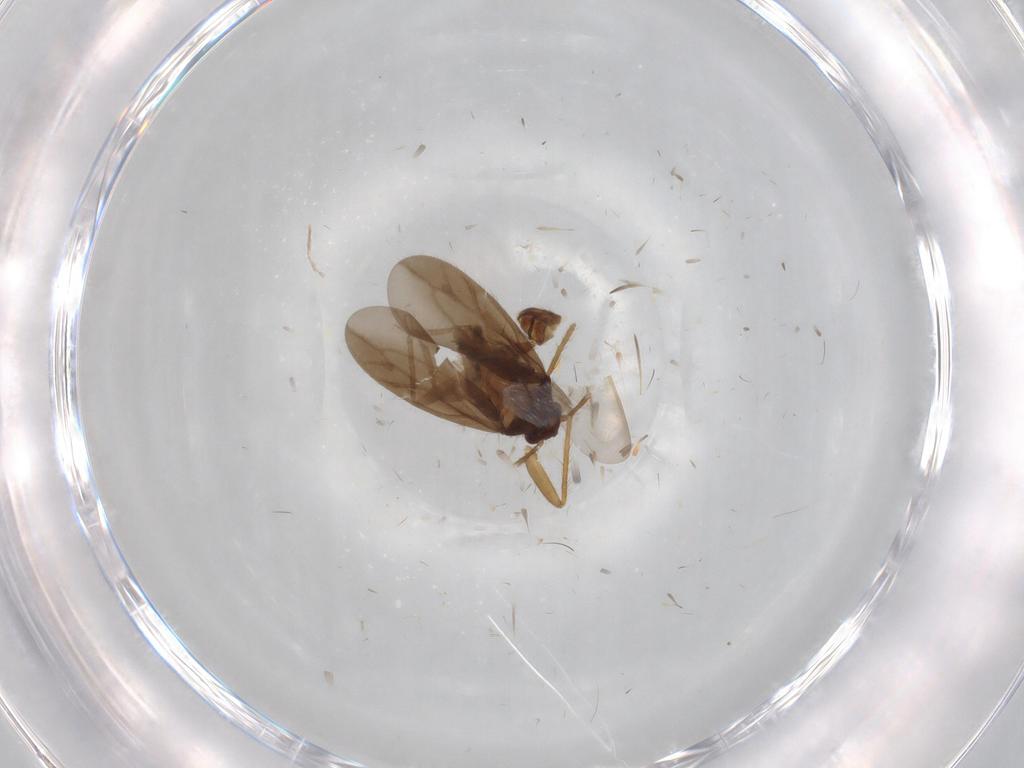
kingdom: Animalia
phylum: Arthropoda
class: Insecta
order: Hemiptera
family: Ceratocombidae
